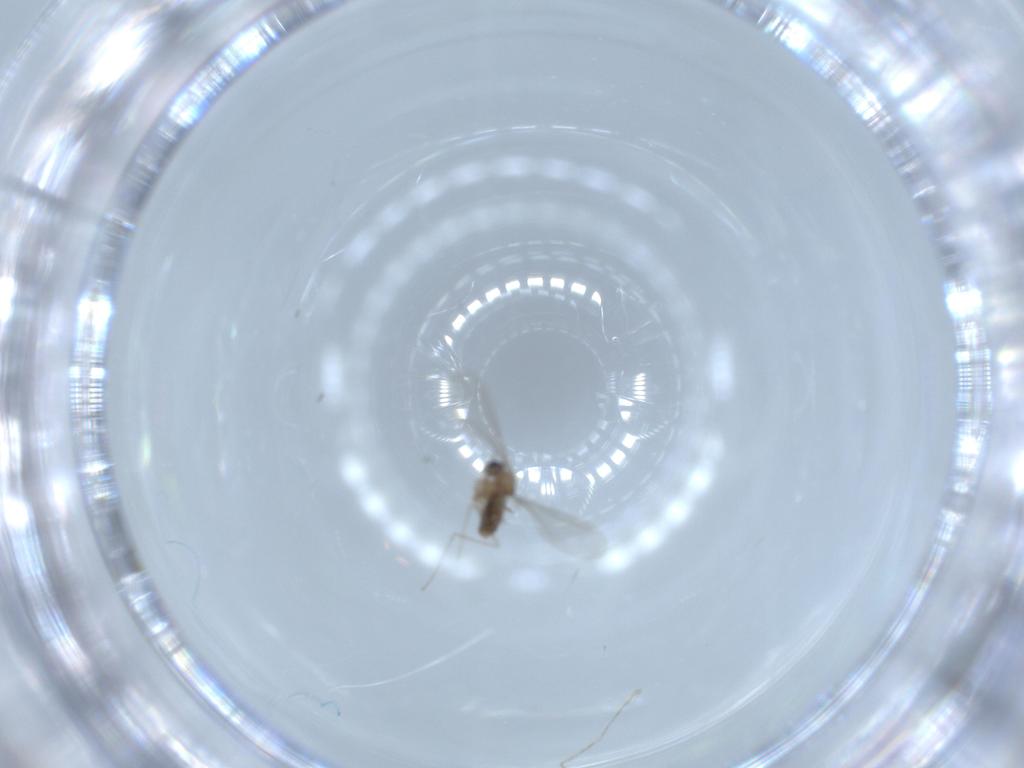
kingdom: Animalia
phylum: Arthropoda
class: Insecta
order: Diptera
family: Cecidomyiidae
